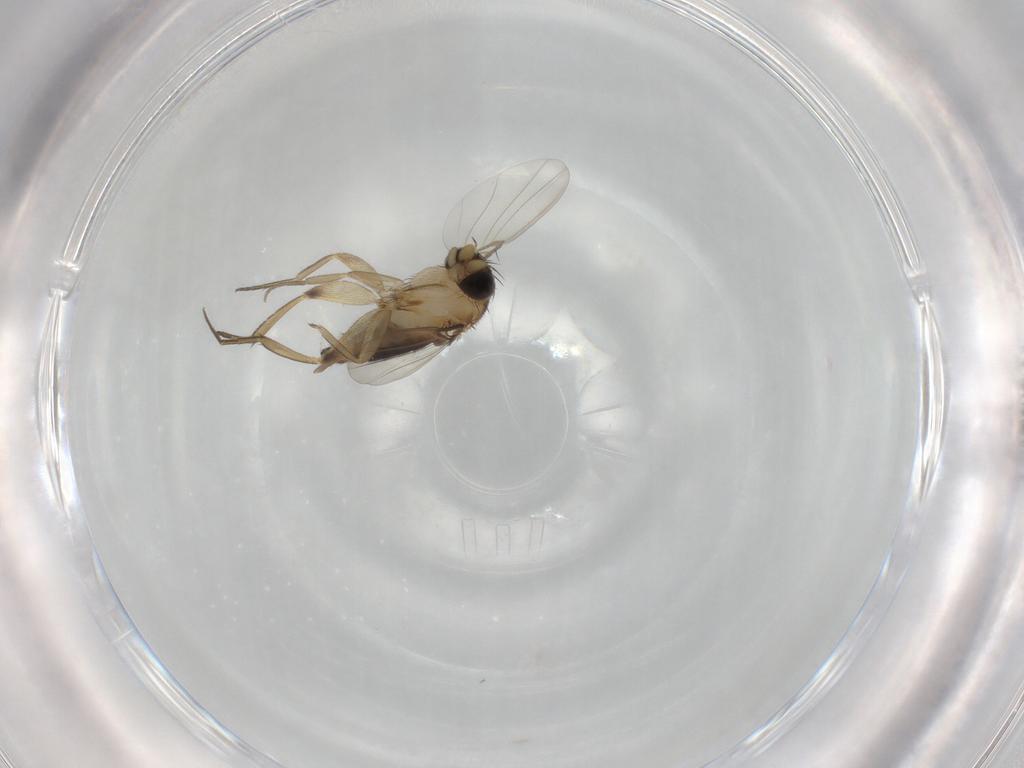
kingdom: Animalia
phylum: Arthropoda
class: Insecta
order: Diptera
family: Phoridae
